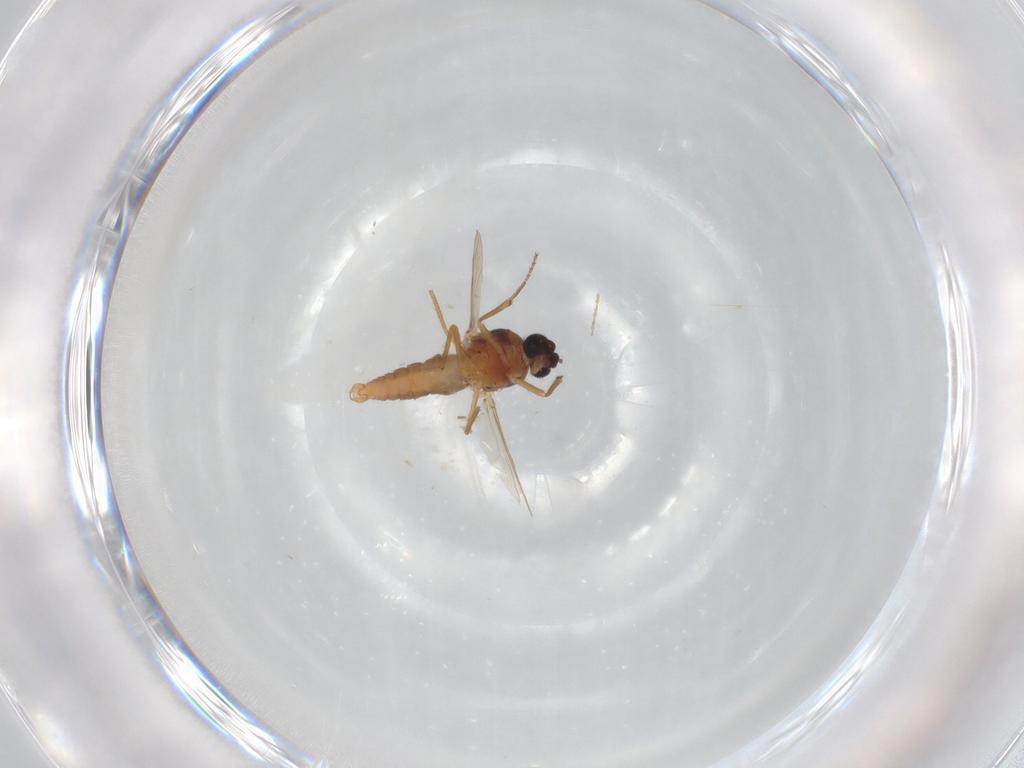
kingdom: Animalia
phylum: Arthropoda
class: Insecta
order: Diptera
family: Ceratopogonidae
